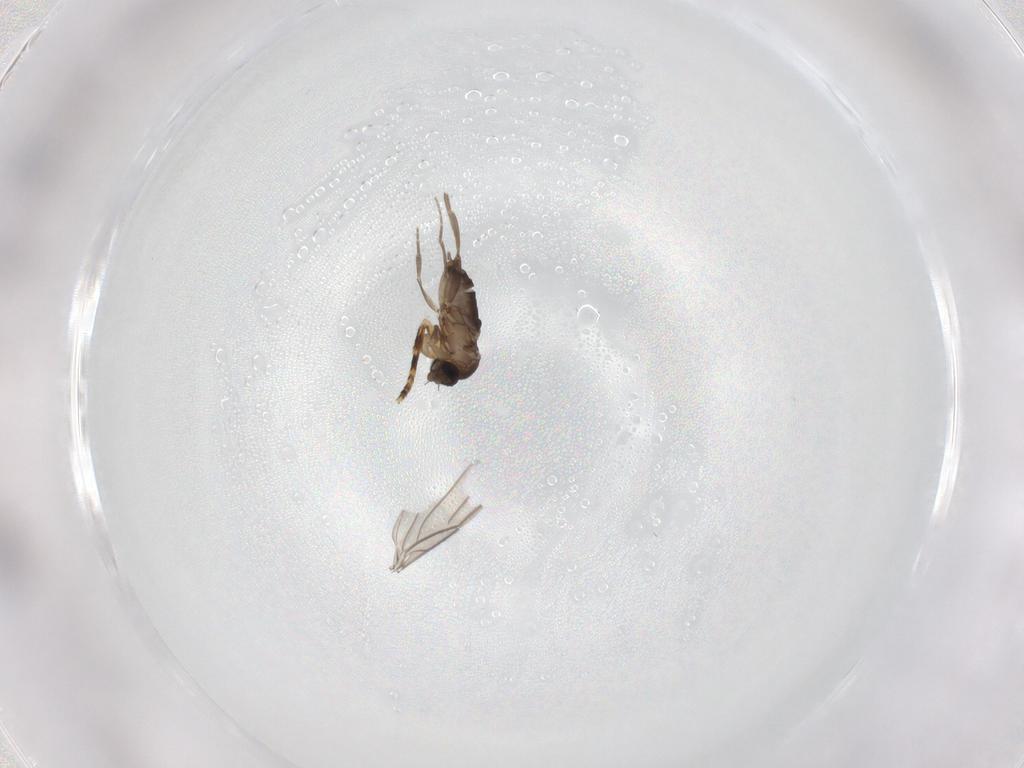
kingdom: Animalia
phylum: Arthropoda
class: Insecta
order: Diptera
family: Phoridae
